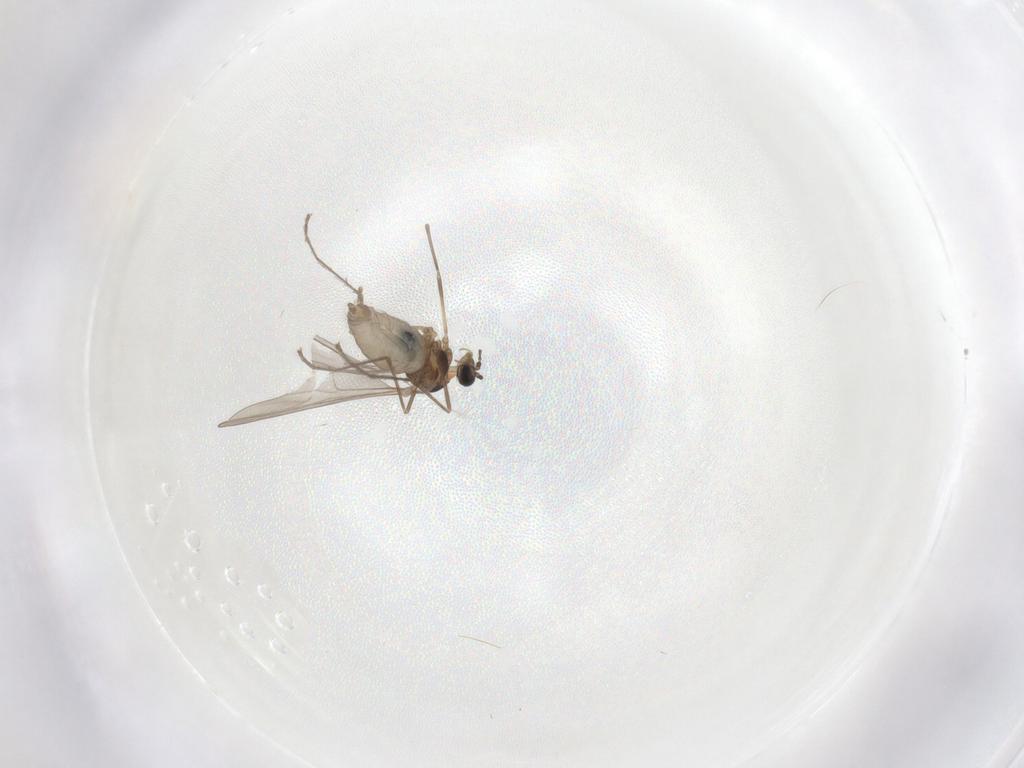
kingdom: Animalia
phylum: Arthropoda
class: Insecta
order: Diptera
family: Cecidomyiidae
